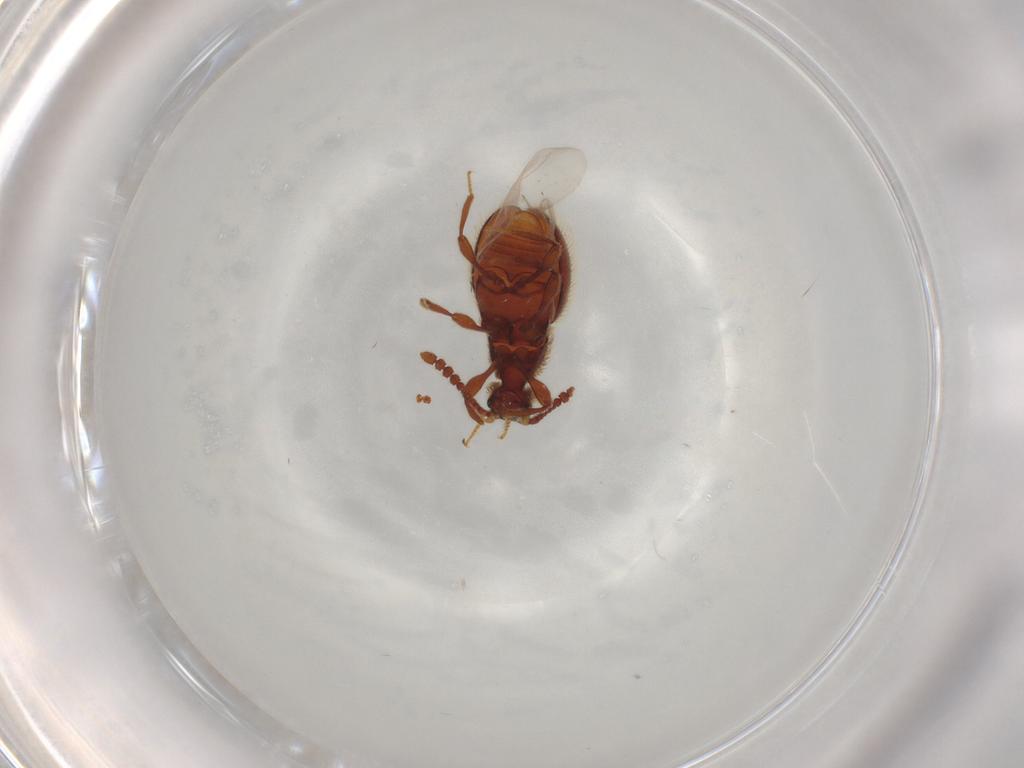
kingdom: Animalia
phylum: Arthropoda
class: Insecta
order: Coleoptera
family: Staphylinidae
